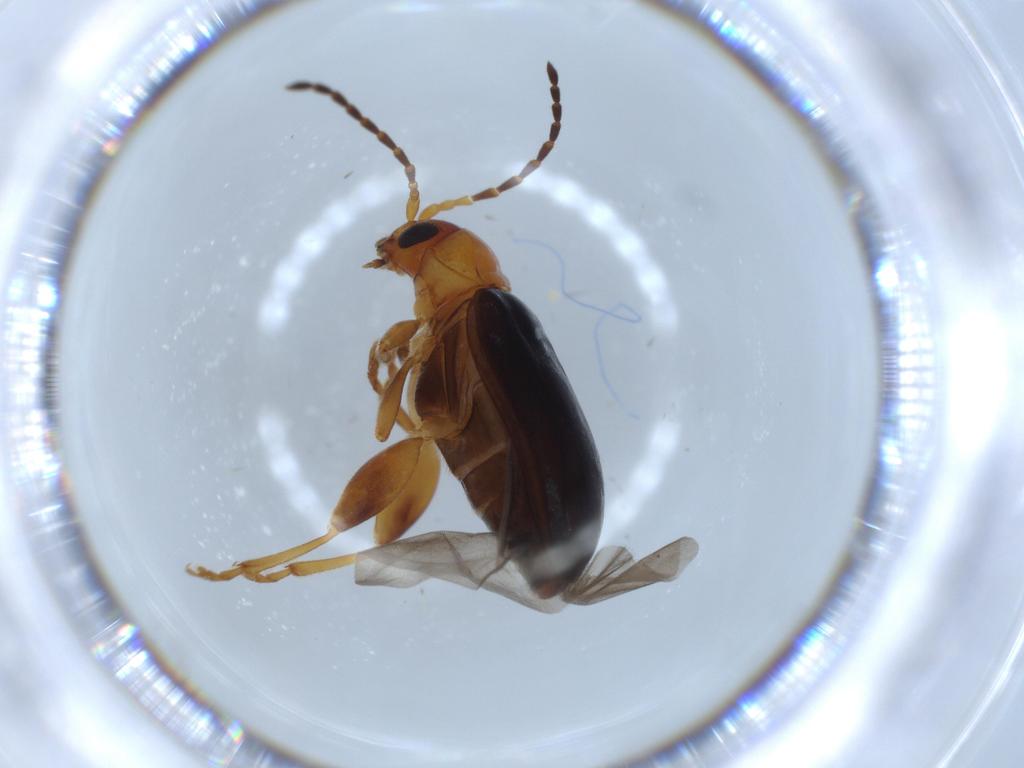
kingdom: Animalia
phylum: Arthropoda
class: Insecta
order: Coleoptera
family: Chrysomelidae
